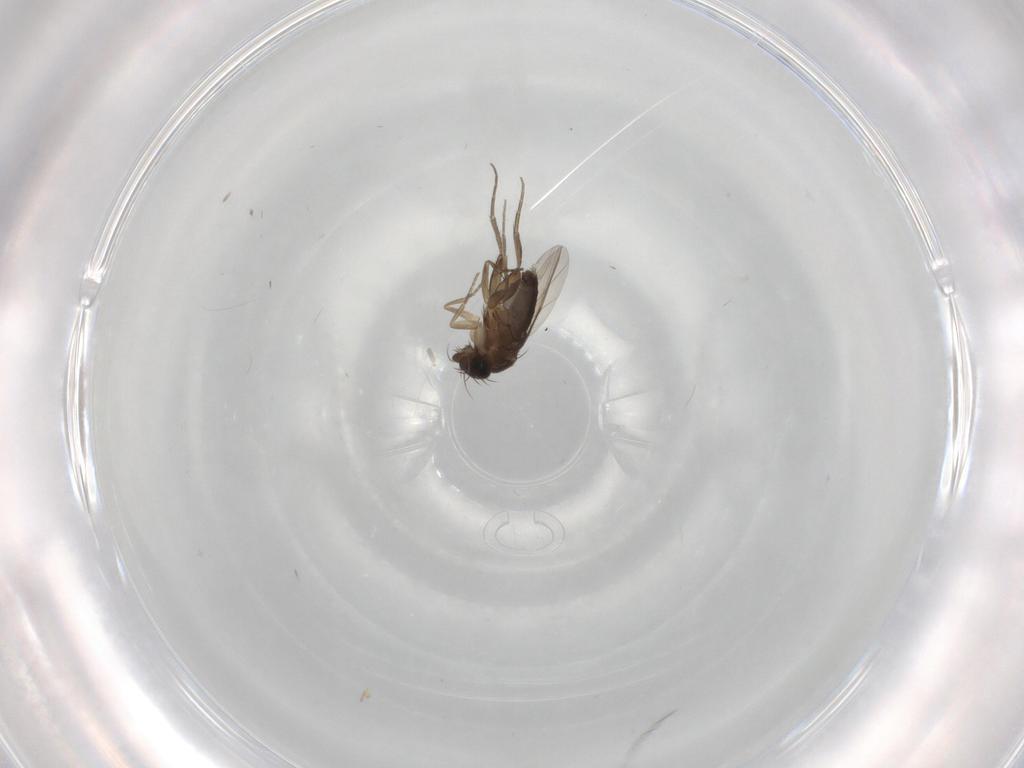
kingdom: Animalia
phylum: Arthropoda
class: Insecta
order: Diptera
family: Phoridae
